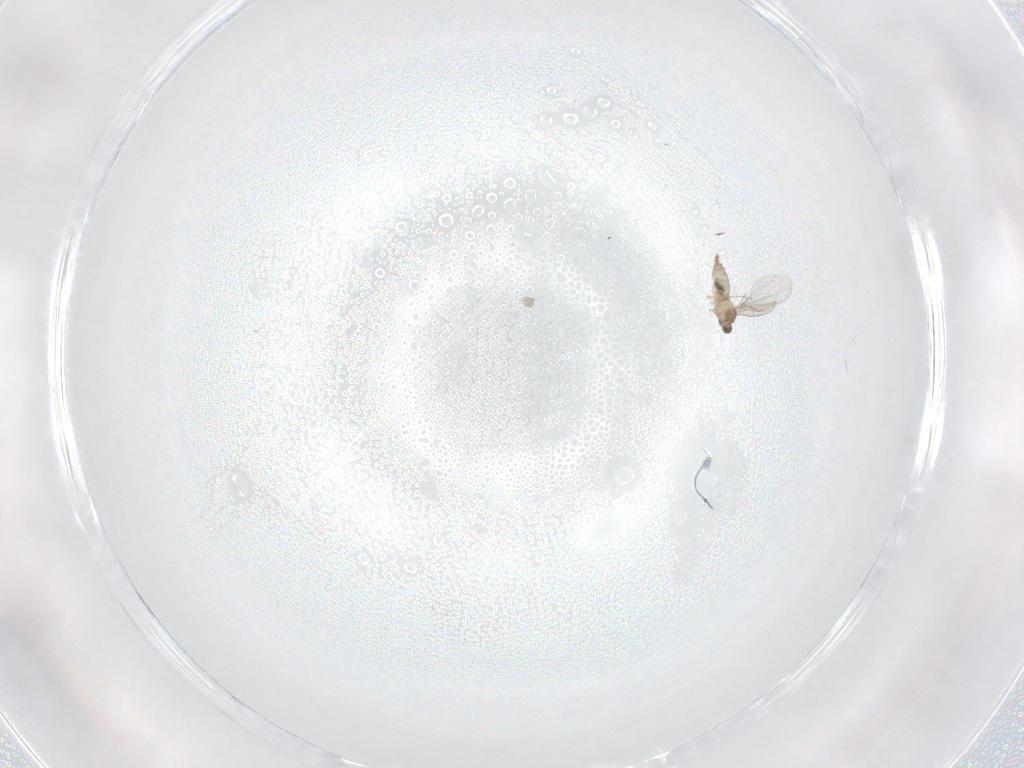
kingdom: Animalia
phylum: Arthropoda
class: Insecta
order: Diptera
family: Cecidomyiidae
